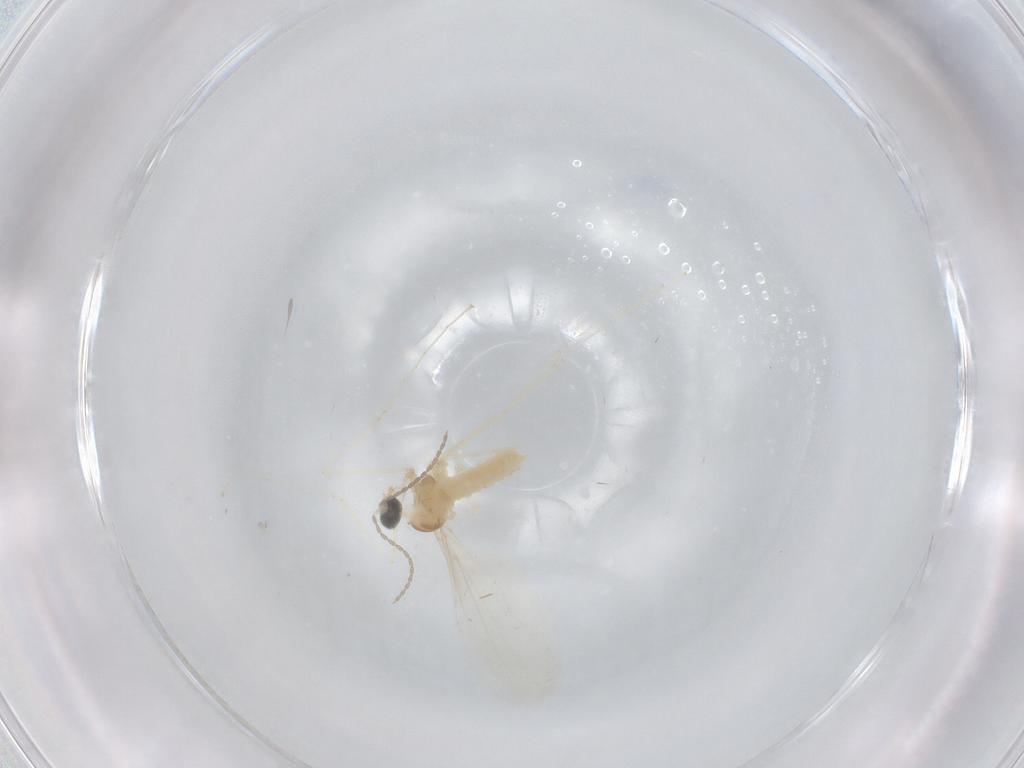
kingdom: Animalia
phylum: Arthropoda
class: Insecta
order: Diptera
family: Cecidomyiidae
